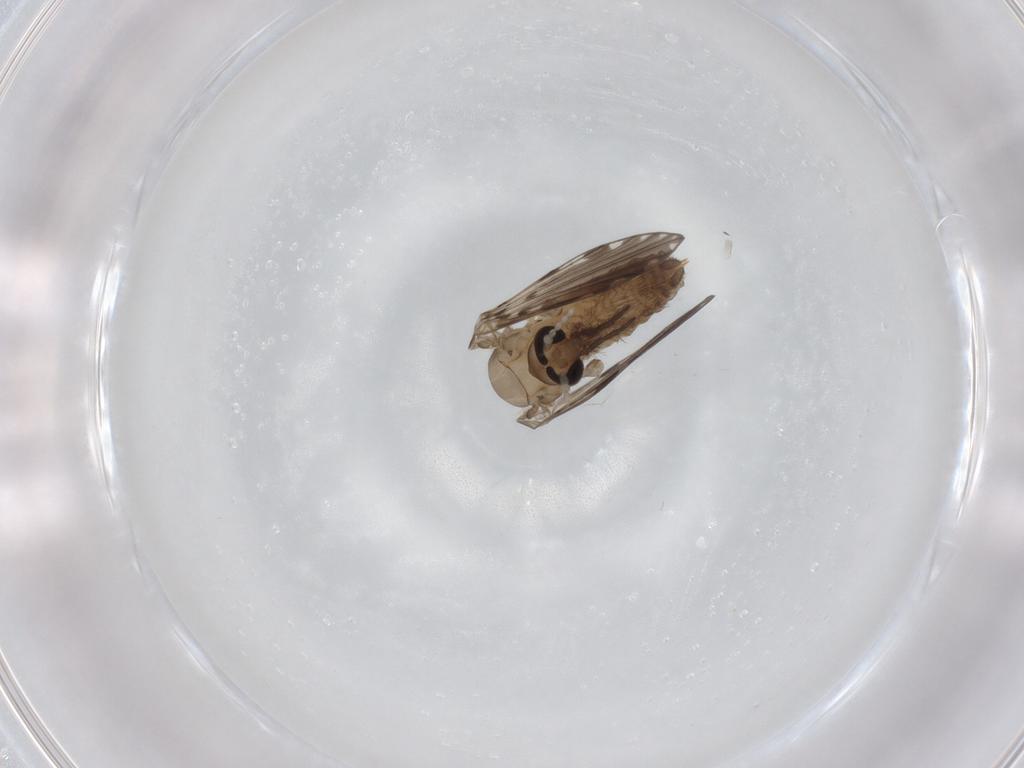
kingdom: Animalia
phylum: Arthropoda
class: Insecta
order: Diptera
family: Psychodidae
